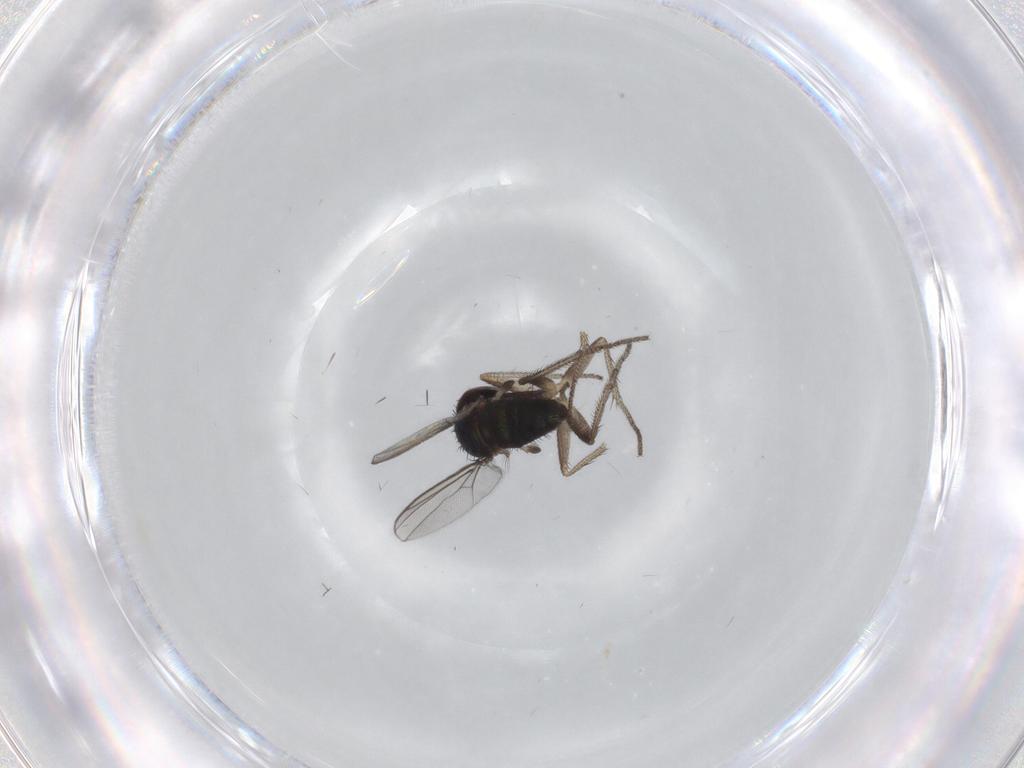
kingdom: Animalia
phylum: Arthropoda
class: Insecta
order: Diptera
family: Dolichopodidae
